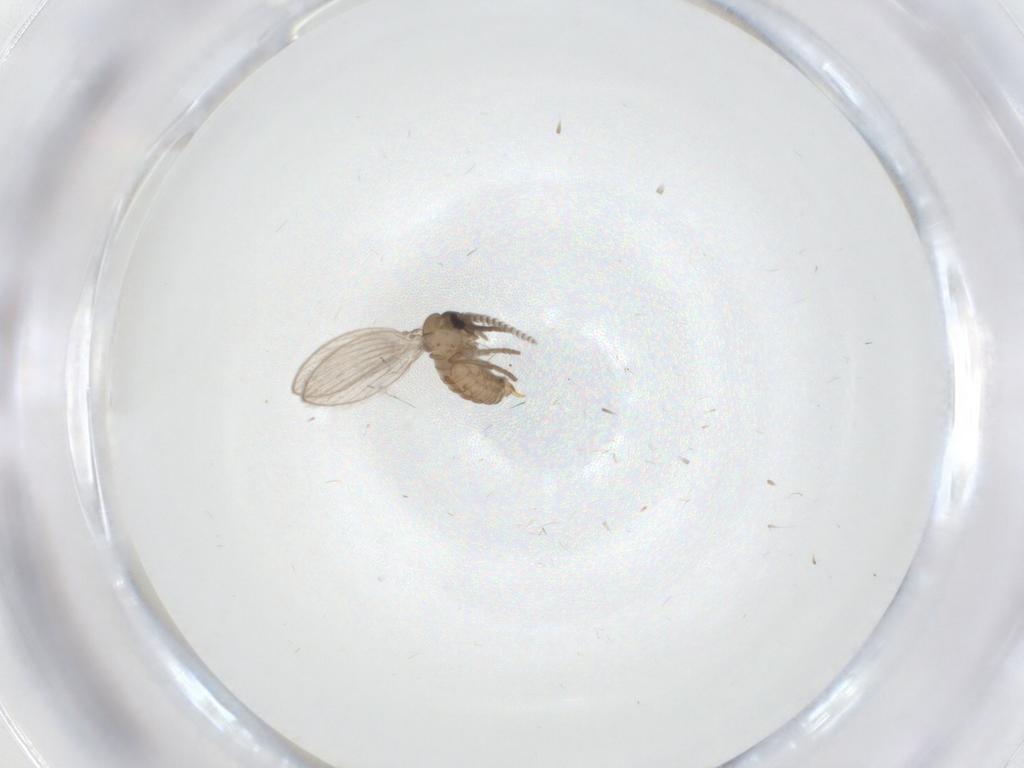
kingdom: Animalia
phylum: Arthropoda
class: Insecta
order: Diptera
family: Psychodidae
